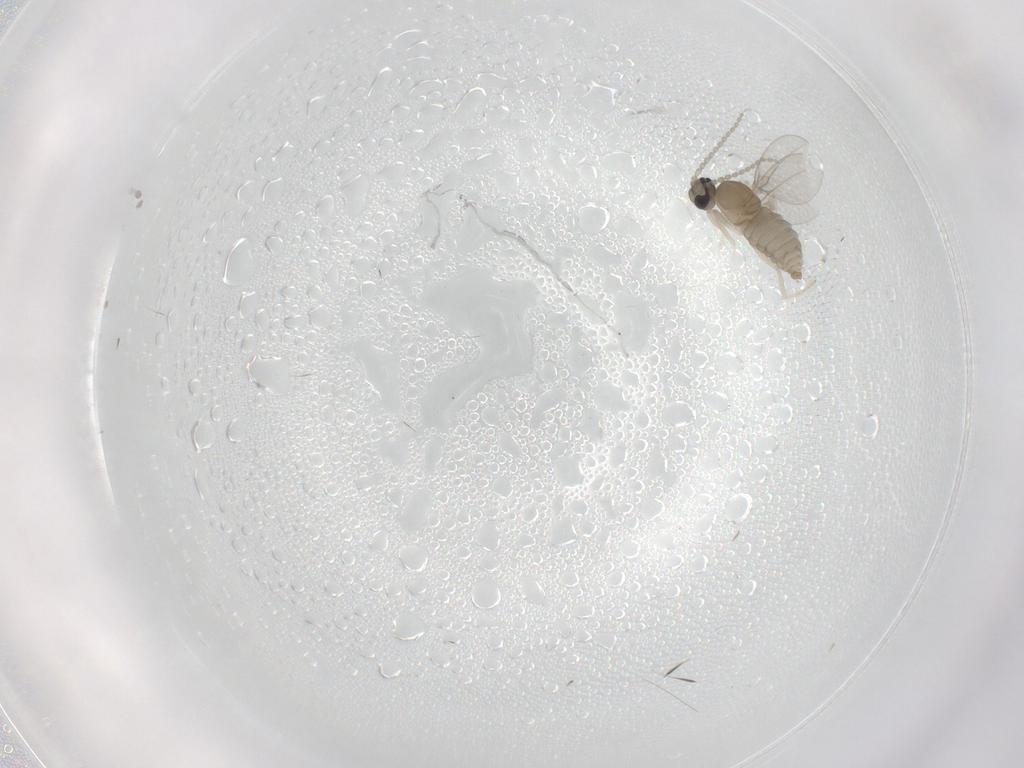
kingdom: Animalia
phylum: Arthropoda
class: Insecta
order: Diptera
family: Cecidomyiidae
